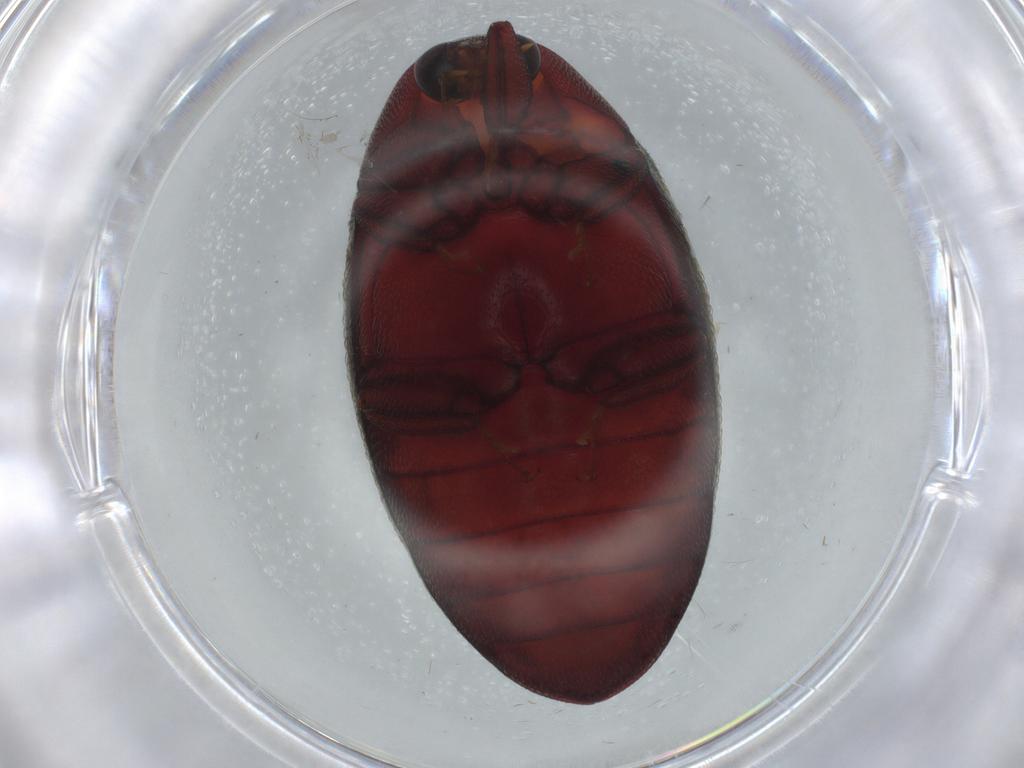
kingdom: Animalia
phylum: Arthropoda
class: Insecta
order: Coleoptera
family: Chelonariidae
